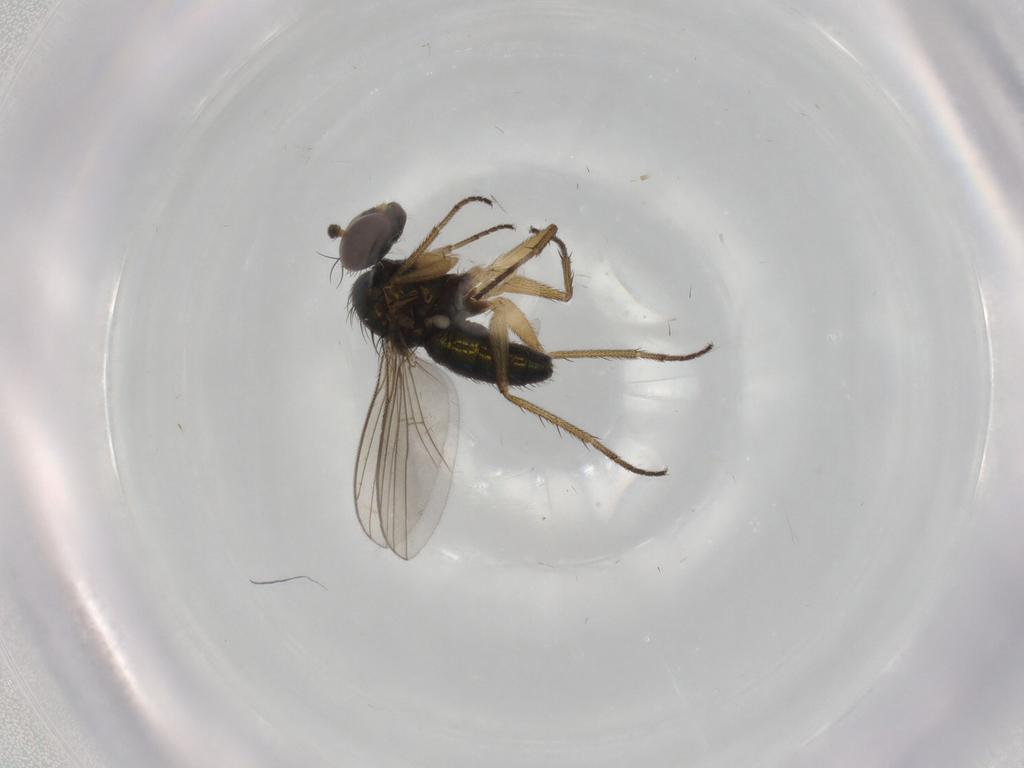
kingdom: Animalia
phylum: Arthropoda
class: Insecta
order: Diptera
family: Dolichopodidae
